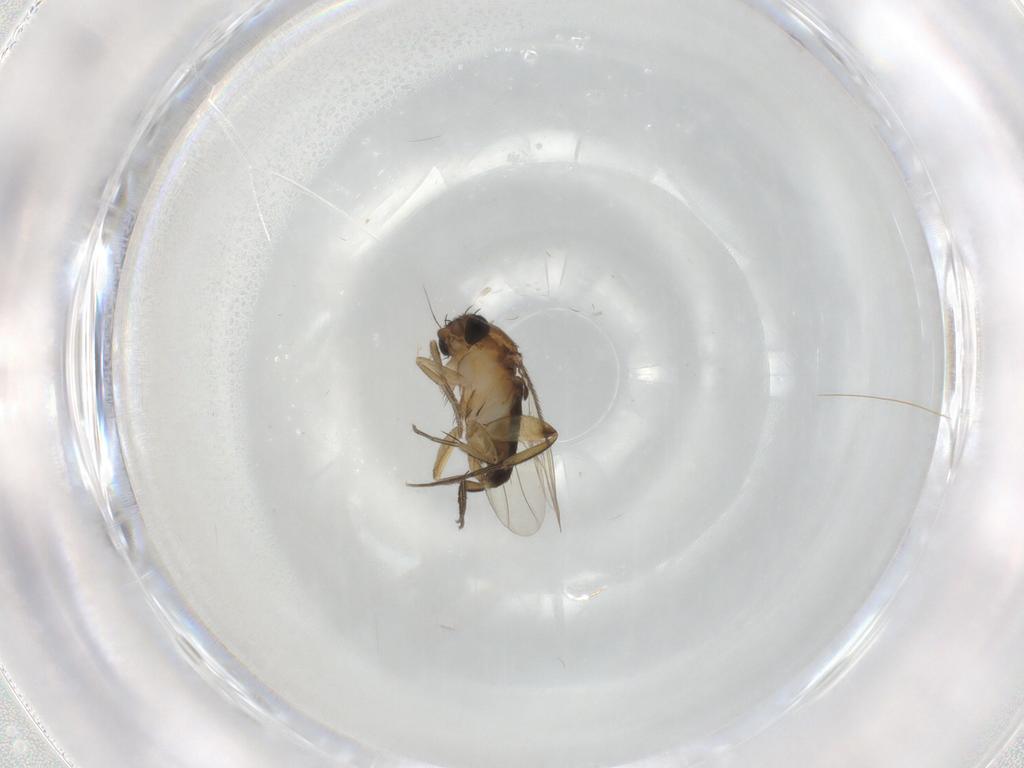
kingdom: Animalia
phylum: Arthropoda
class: Insecta
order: Diptera
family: Phoridae
